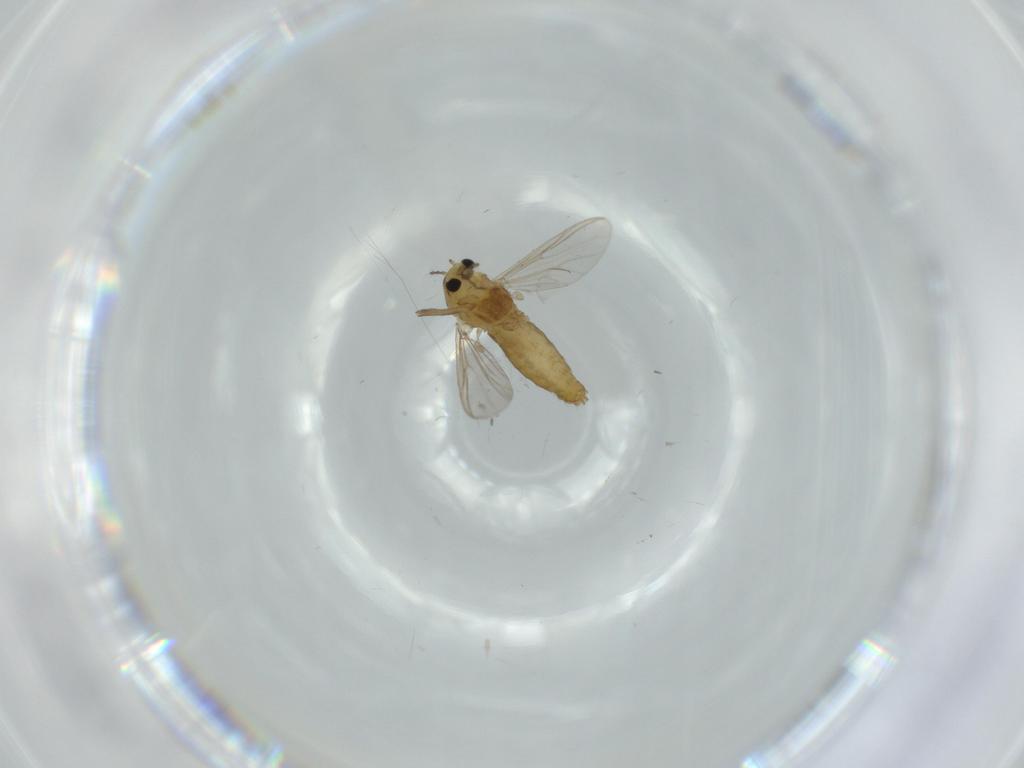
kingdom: Animalia
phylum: Arthropoda
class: Insecta
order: Diptera
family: Chironomidae
